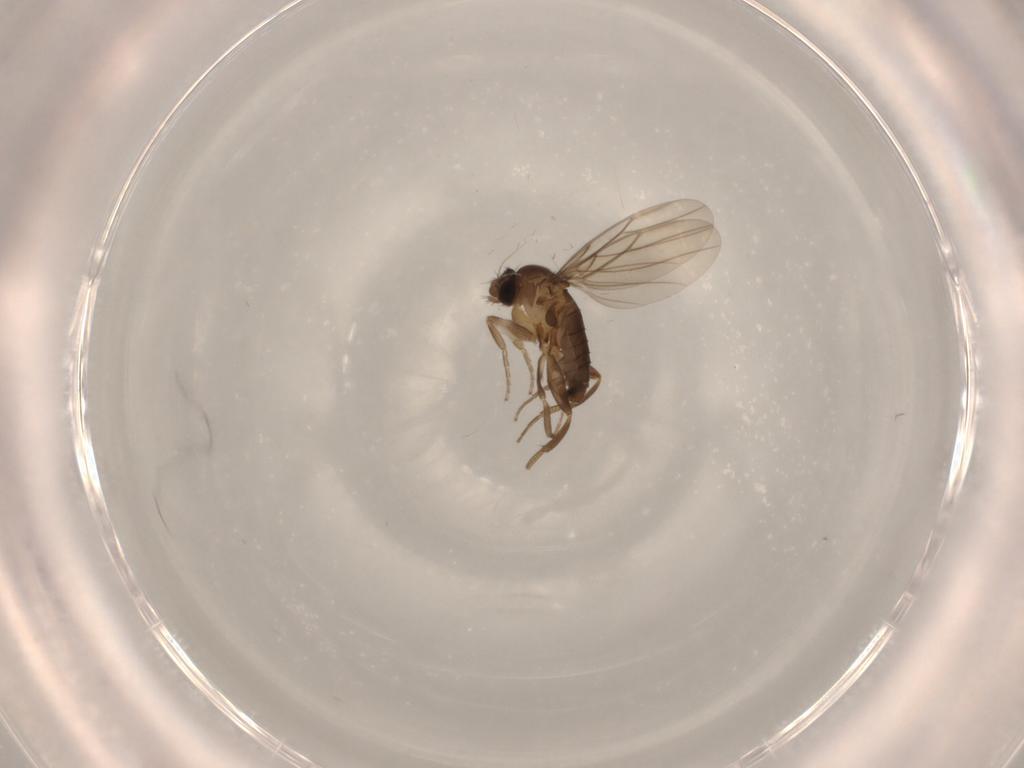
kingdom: Animalia
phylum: Arthropoda
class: Insecta
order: Diptera
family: Phoridae
